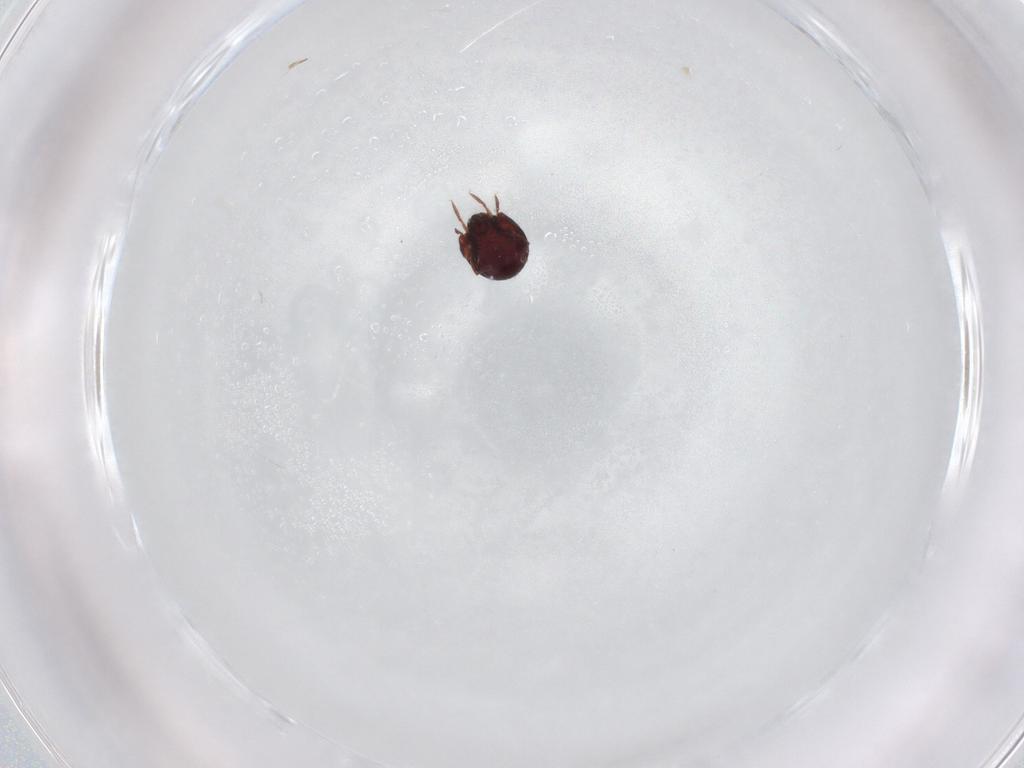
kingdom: Animalia
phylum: Arthropoda
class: Arachnida
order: Sarcoptiformes
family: Humerobatidae
